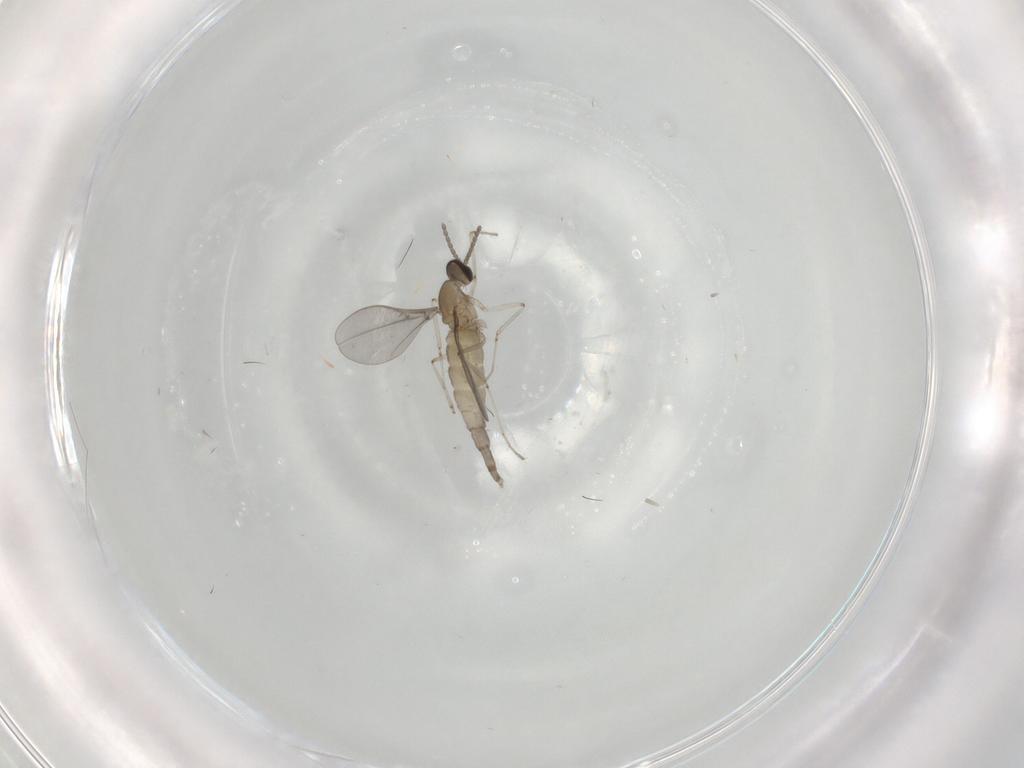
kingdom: Animalia
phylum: Arthropoda
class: Insecta
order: Diptera
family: Cecidomyiidae
